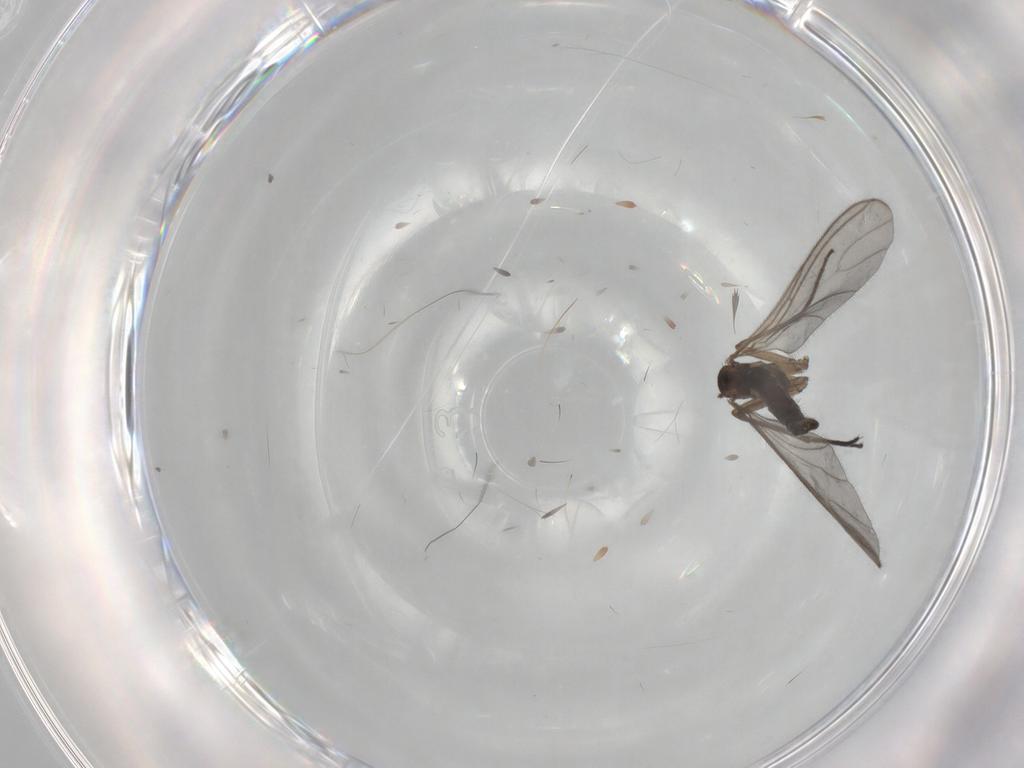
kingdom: Animalia
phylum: Arthropoda
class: Insecta
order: Diptera
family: Sciaridae
